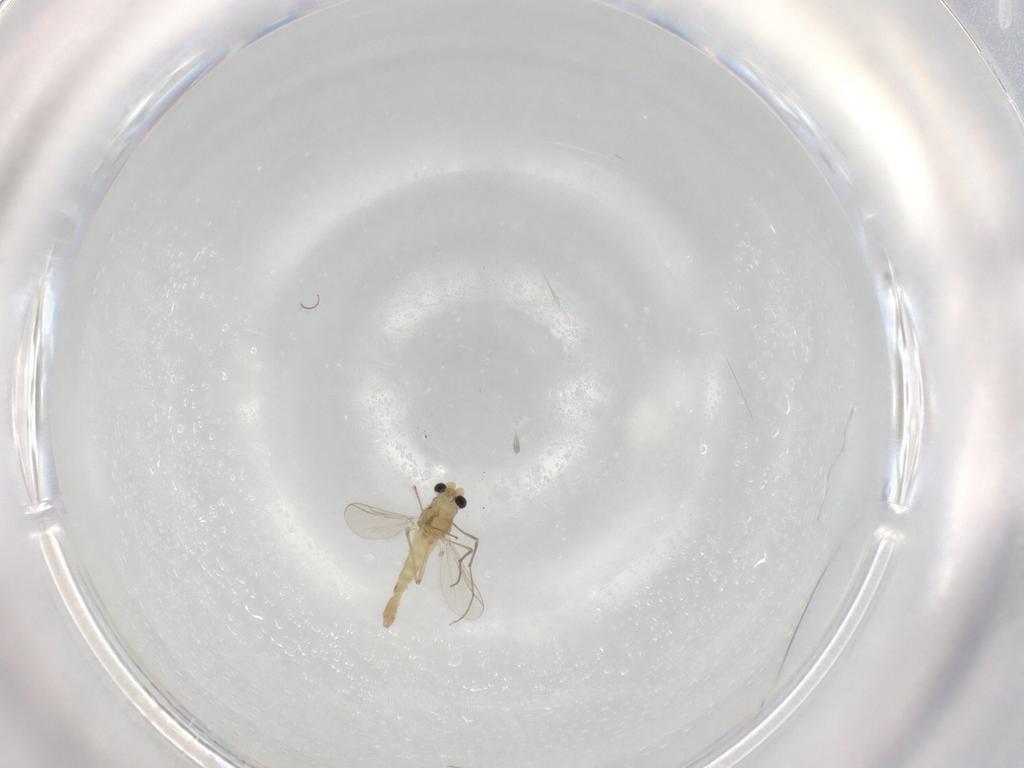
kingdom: Animalia
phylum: Arthropoda
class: Insecta
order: Diptera
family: Chironomidae
